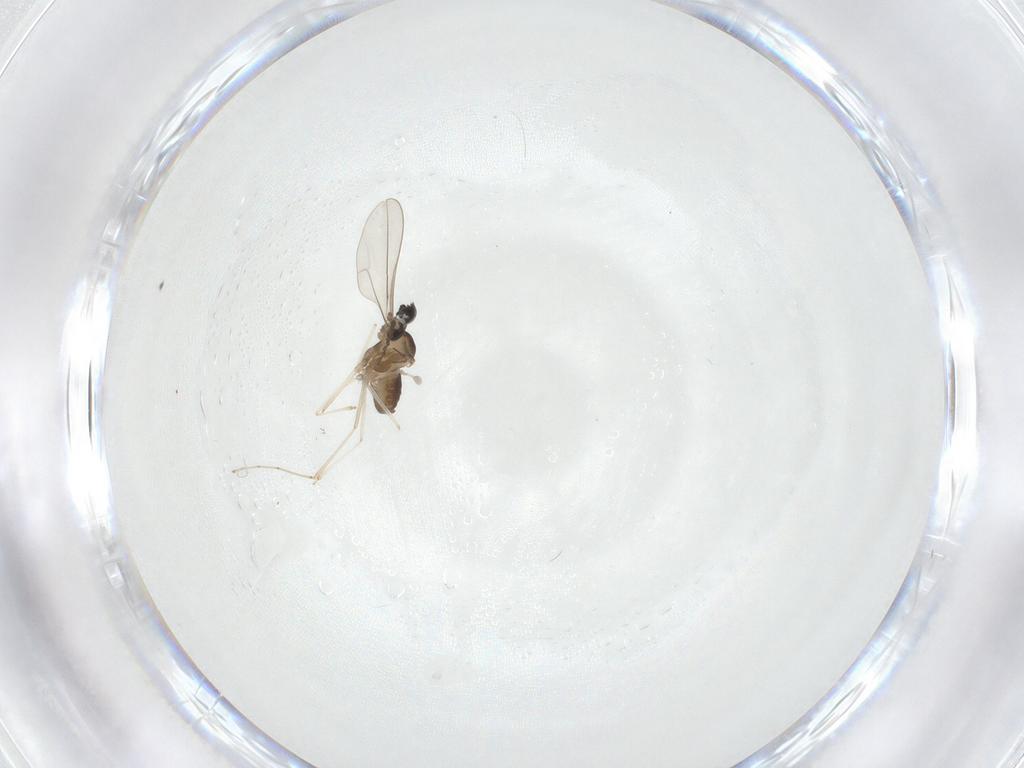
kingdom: Animalia
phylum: Arthropoda
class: Insecta
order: Diptera
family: Cecidomyiidae
